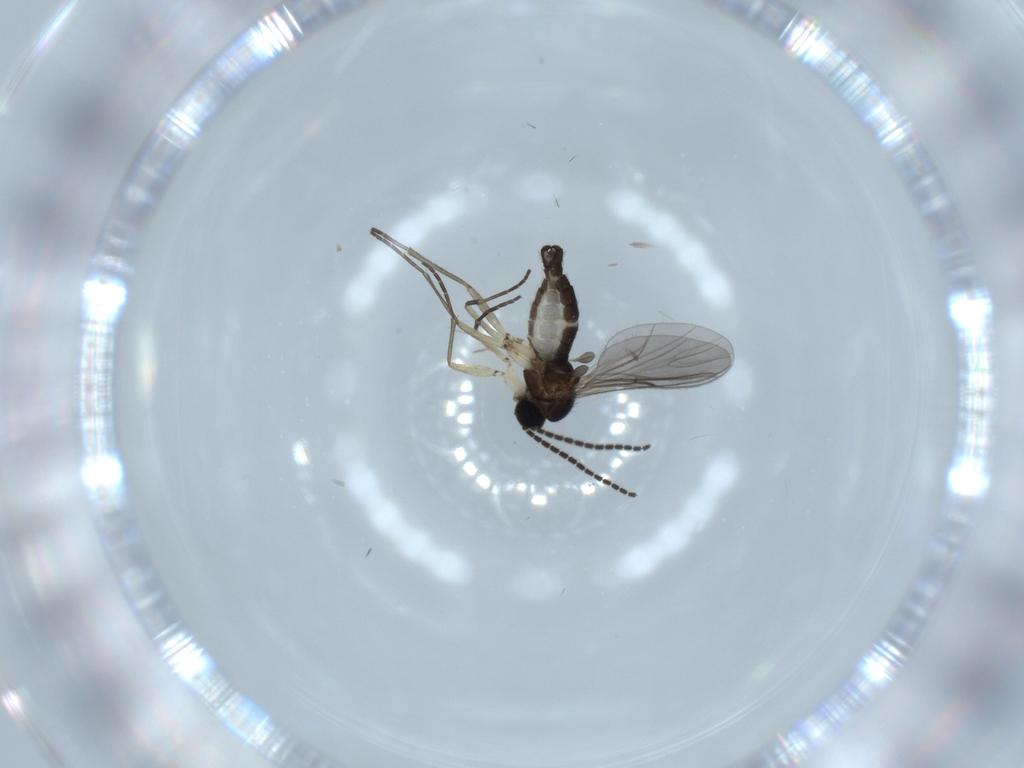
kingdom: Animalia
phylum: Arthropoda
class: Insecta
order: Diptera
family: Sciaridae
